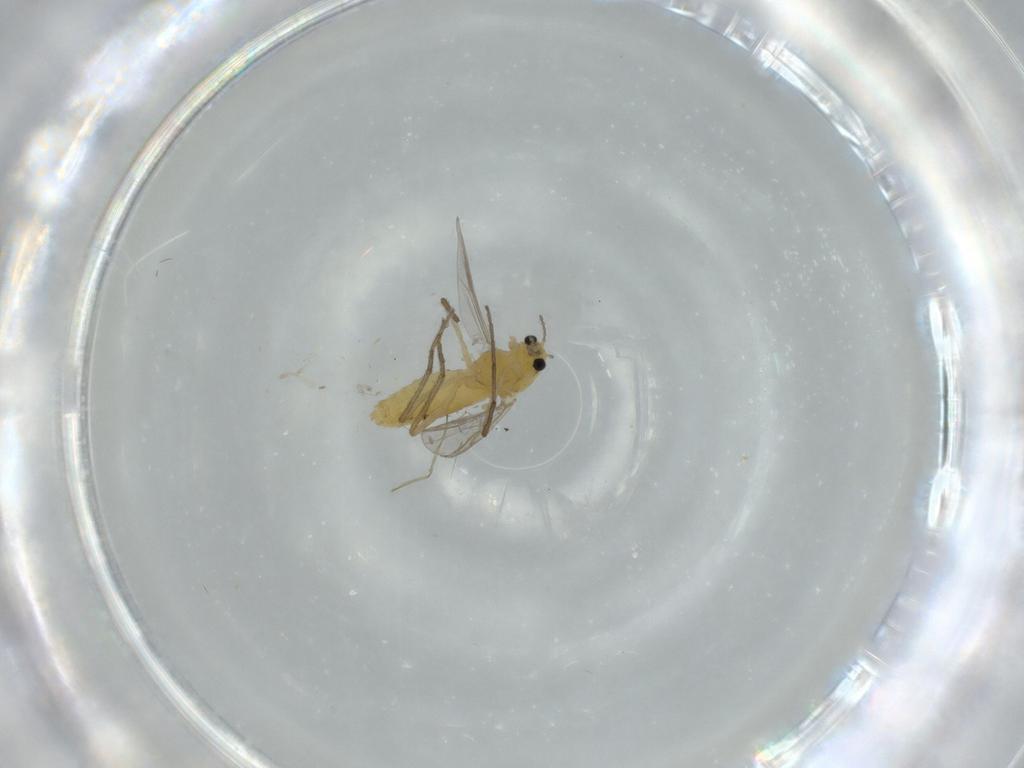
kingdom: Animalia
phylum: Arthropoda
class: Insecta
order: Diptera
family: Chironomidae
